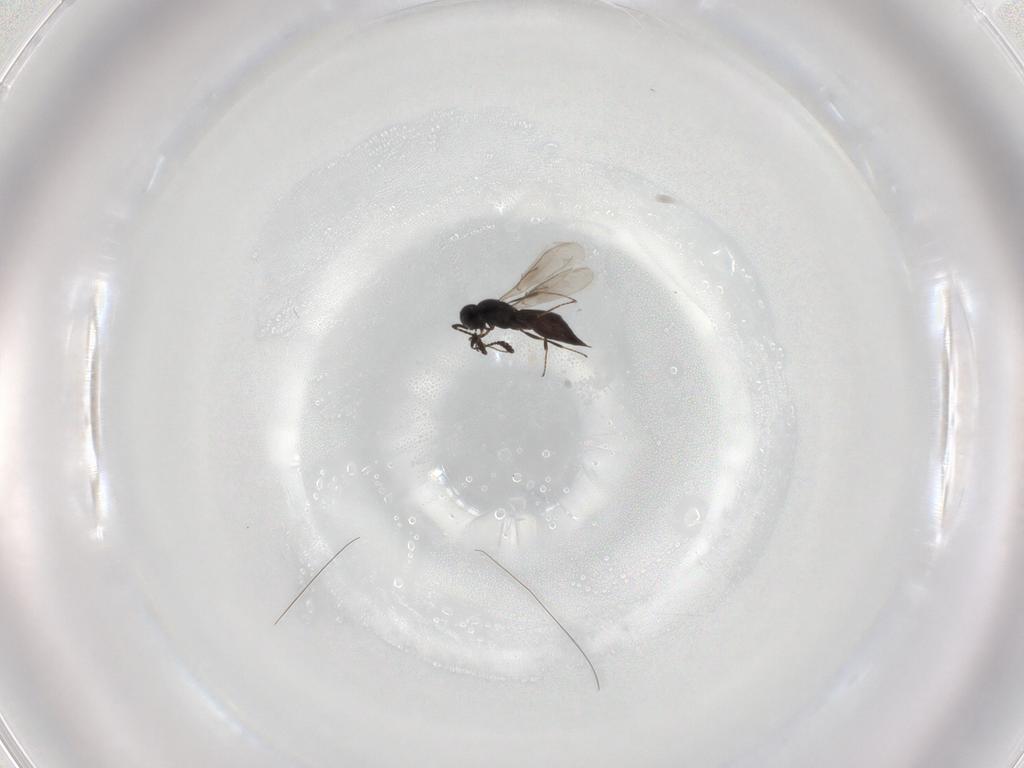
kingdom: Animalia
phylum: Arthropoda
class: Insecta
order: Hymenoptera
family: Scelionidae
